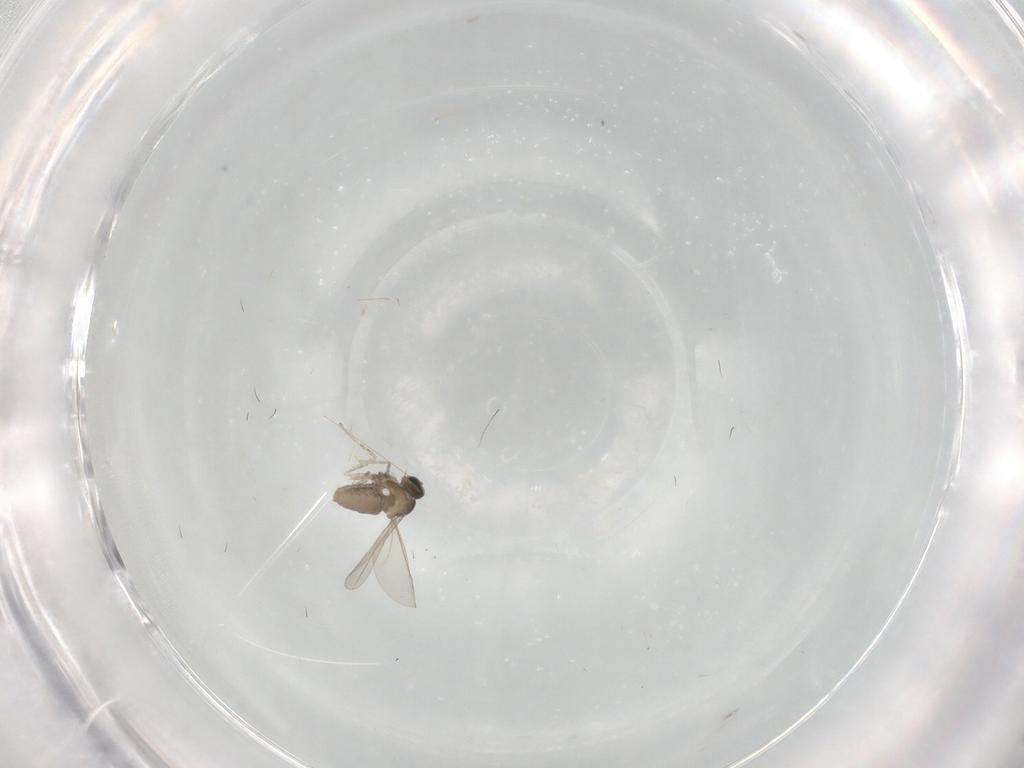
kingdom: Animalia
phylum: Arthropoda
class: Insecta
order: Diptera
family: Cecidomyiidae
